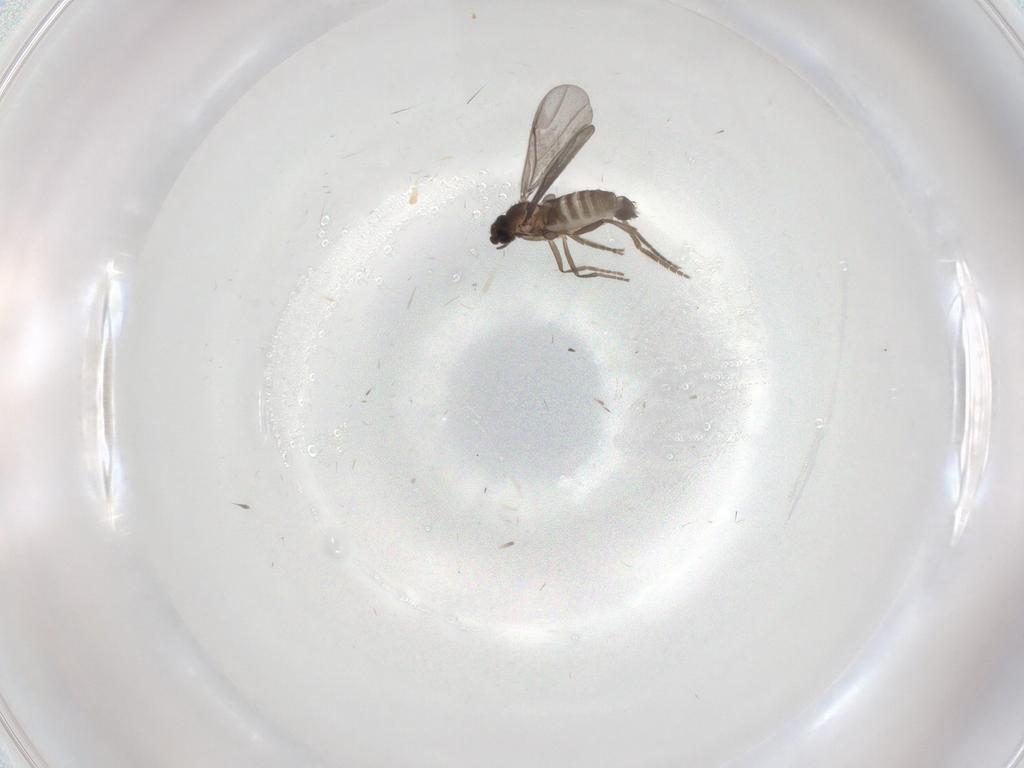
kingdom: Animalia
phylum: Arthropoda
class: Insecta
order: Diptera
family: Phoridae
